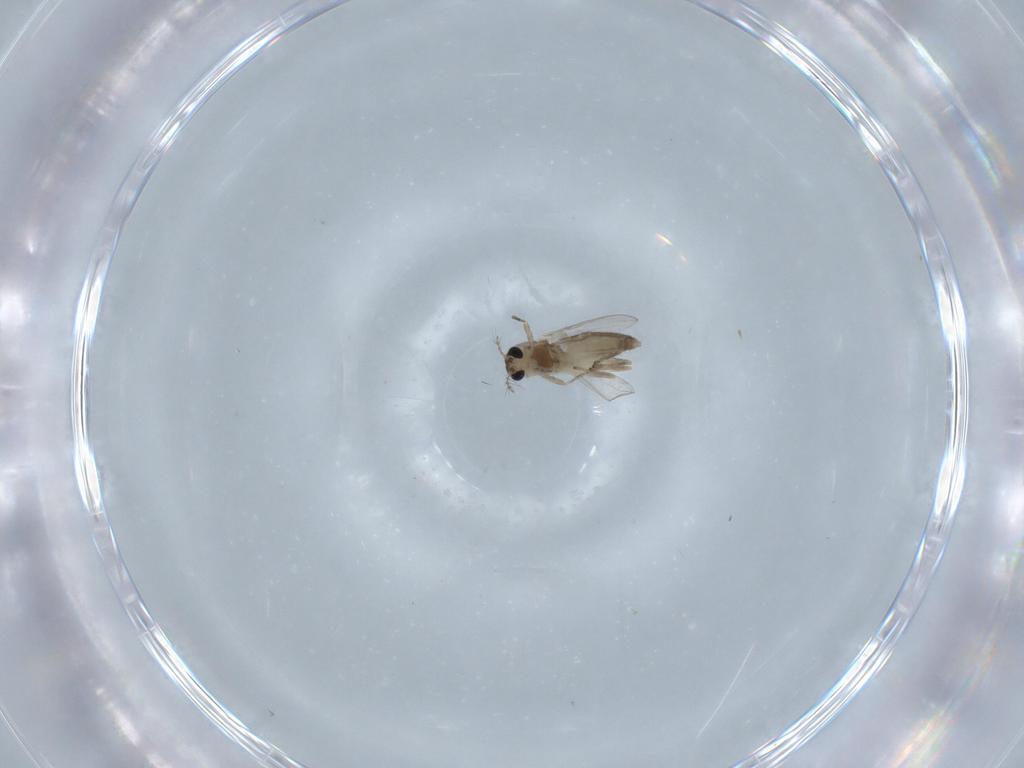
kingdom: Animalia
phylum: Arthropoda
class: Insecta
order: Diptera
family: Chironomidae
